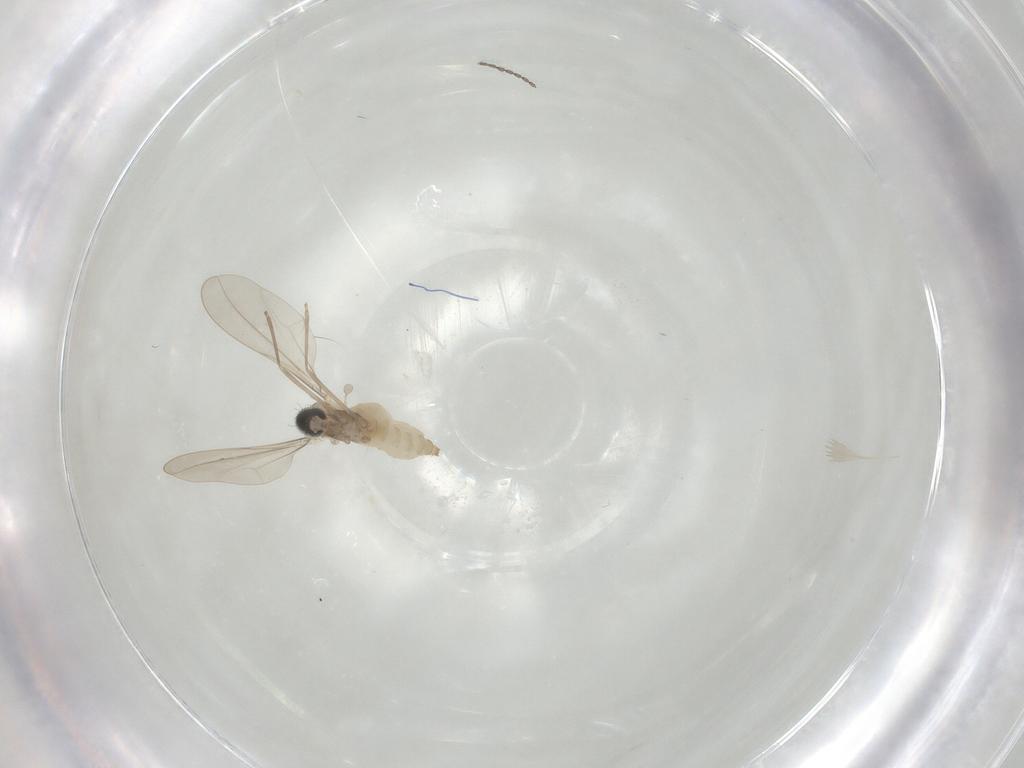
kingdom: Animalia
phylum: Arthropoda
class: Insecta
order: Diptera
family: Cecidomyiidae
